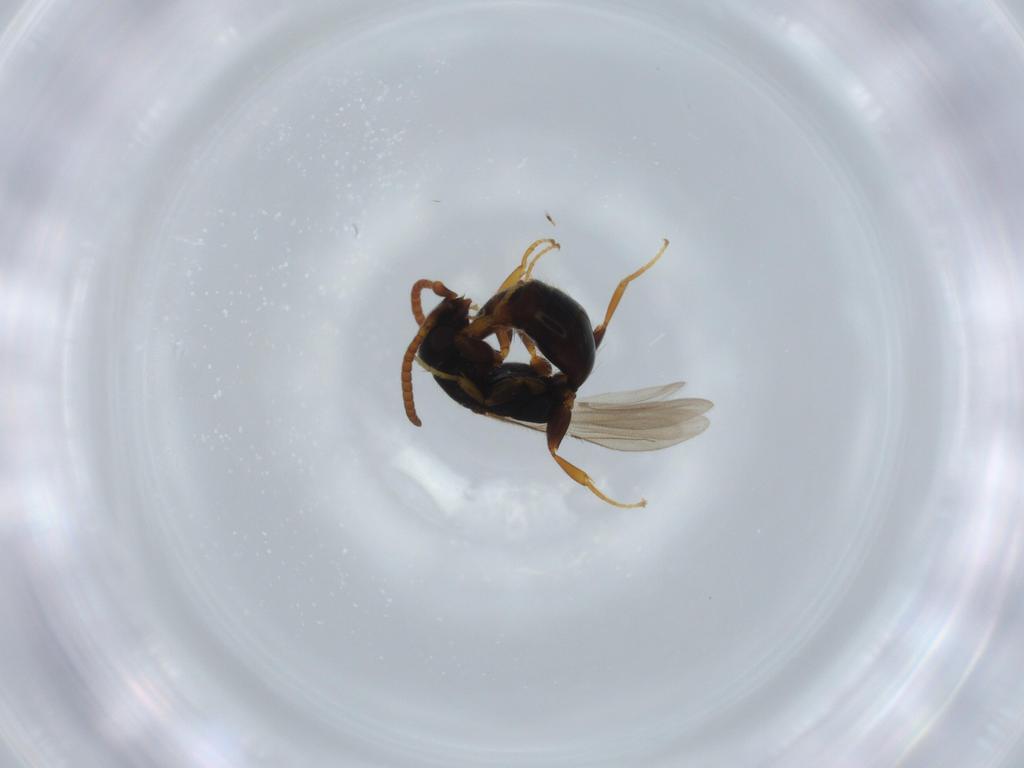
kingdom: Animalia
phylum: Arthropoda
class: Insecta
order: Hymenoptera
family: Bethylidae
